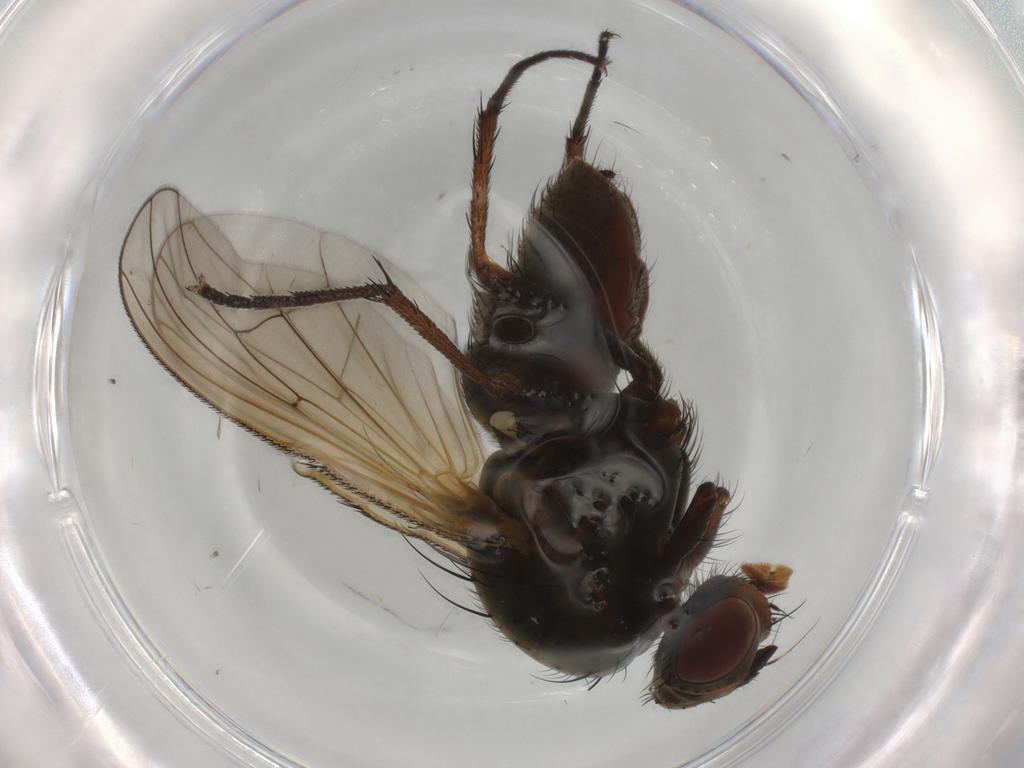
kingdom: Animalia
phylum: Arthropoda
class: Insecta
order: Diptera
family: Anthomyiidae
